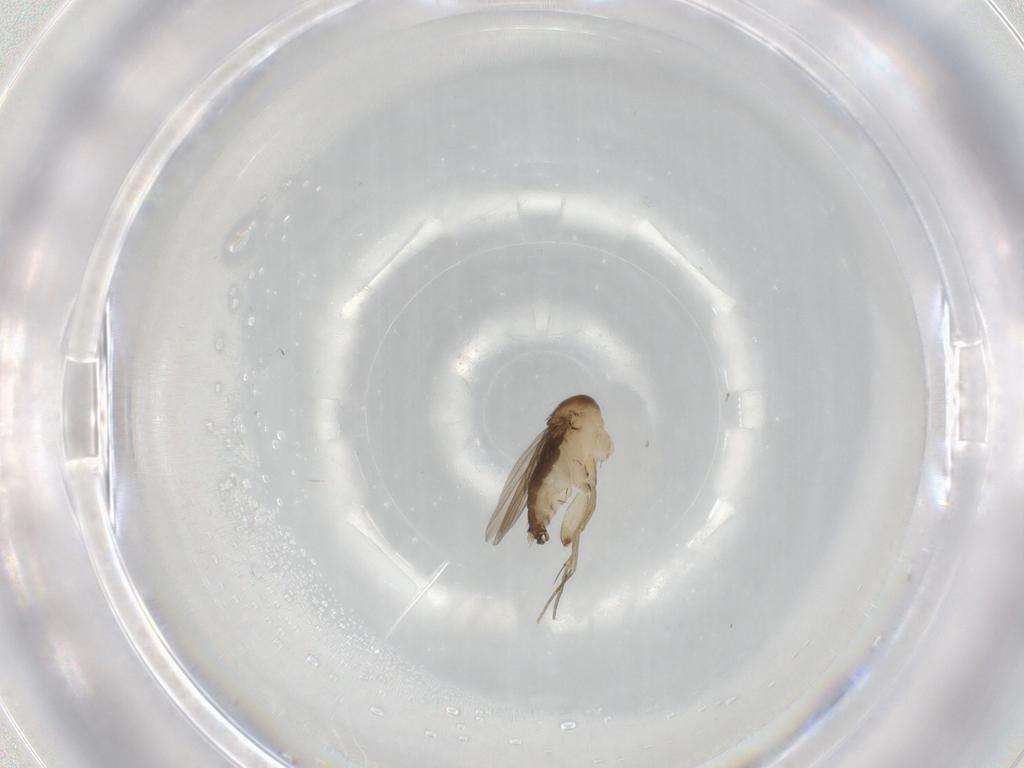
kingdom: Animalia
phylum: Arthropoda
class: Insecta
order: Diptera
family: Phoridae
